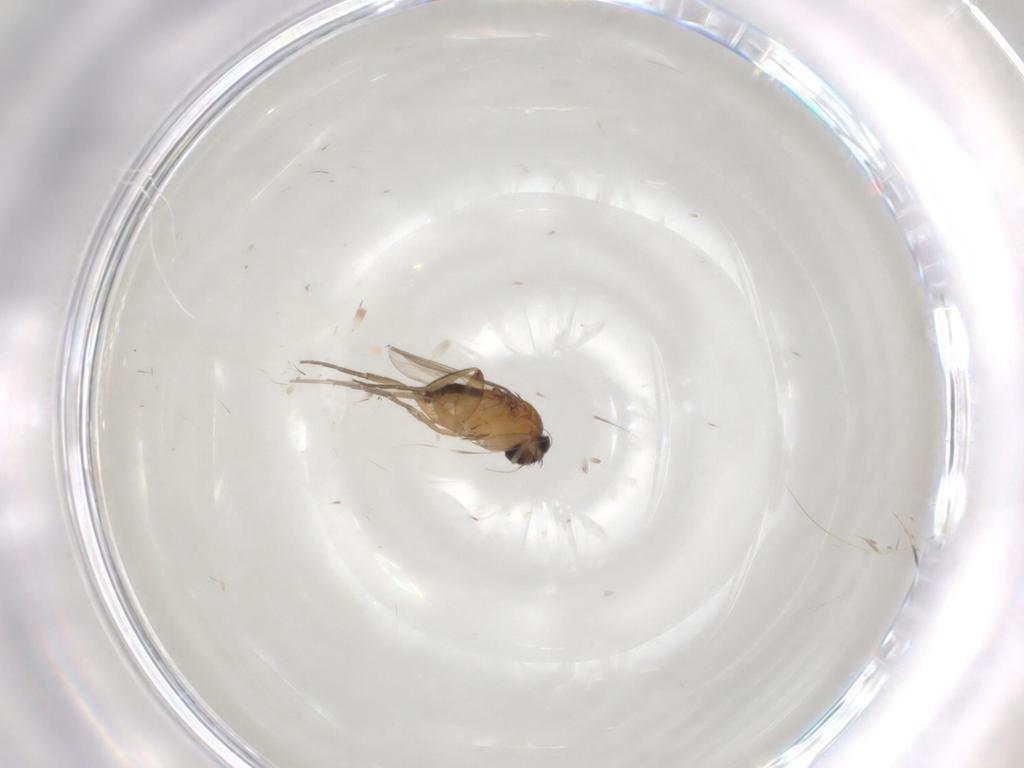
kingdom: Animalia
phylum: Arthropoda
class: Insecta
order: Diptera
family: Phoridae
